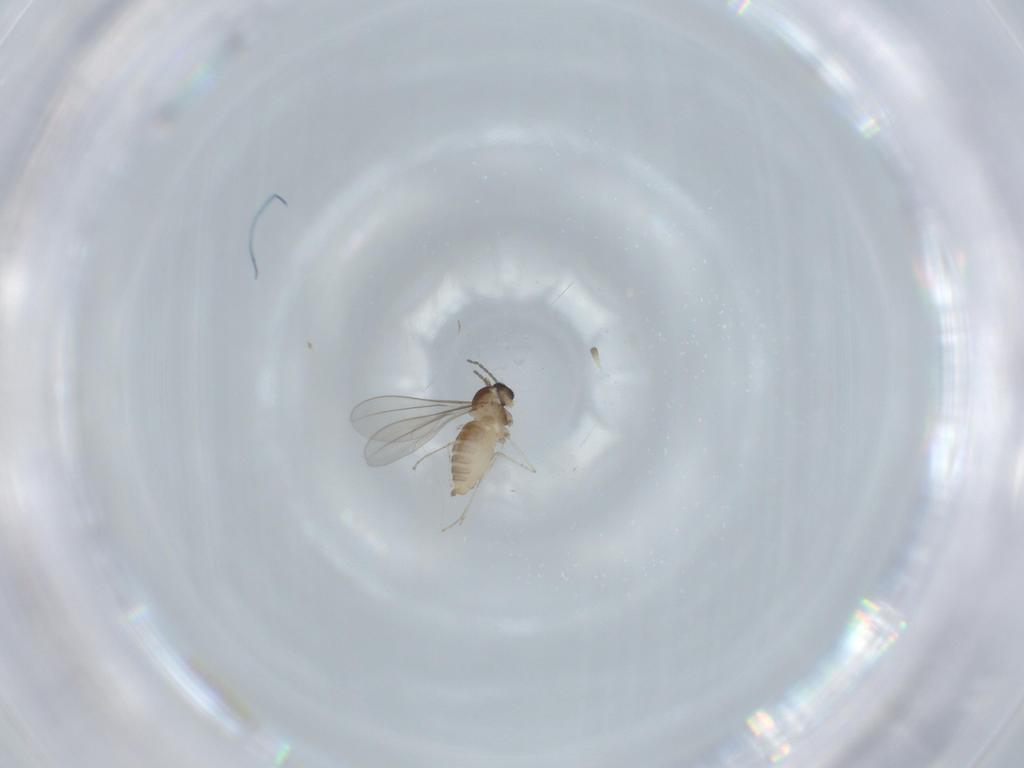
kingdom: Animalia
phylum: Arthropoda
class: Insecta
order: Diptera
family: Cecidomyiidae
